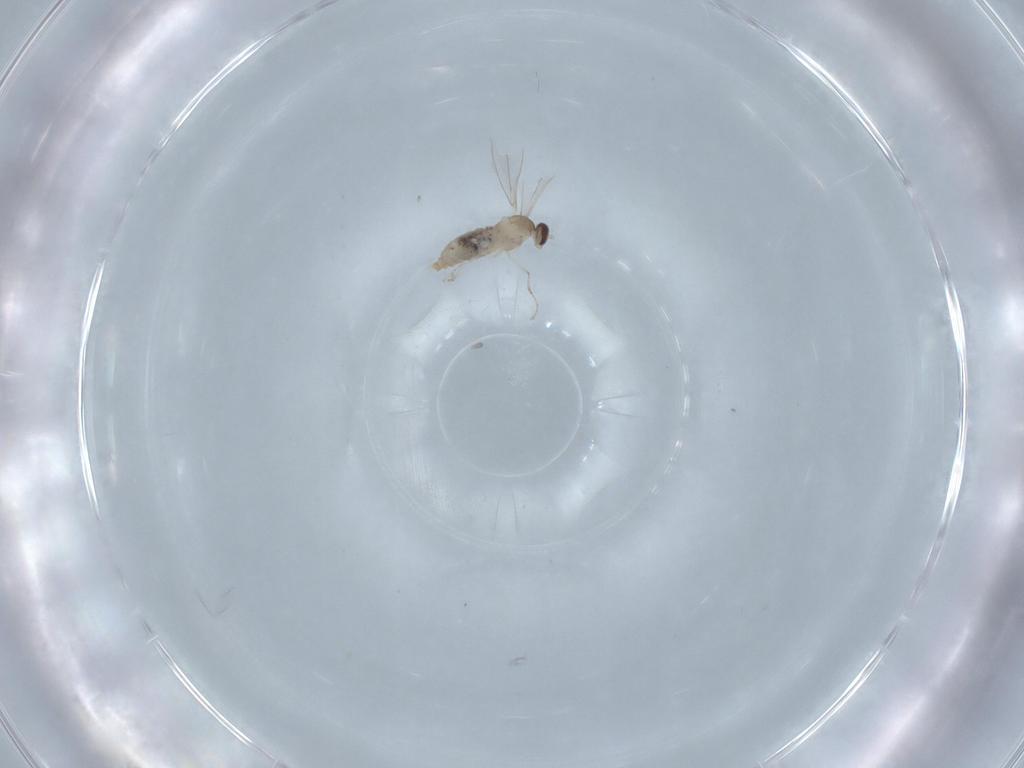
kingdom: Animalia
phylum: Arthropoda
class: Insecta
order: Diptera
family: Cecidomyiidae
